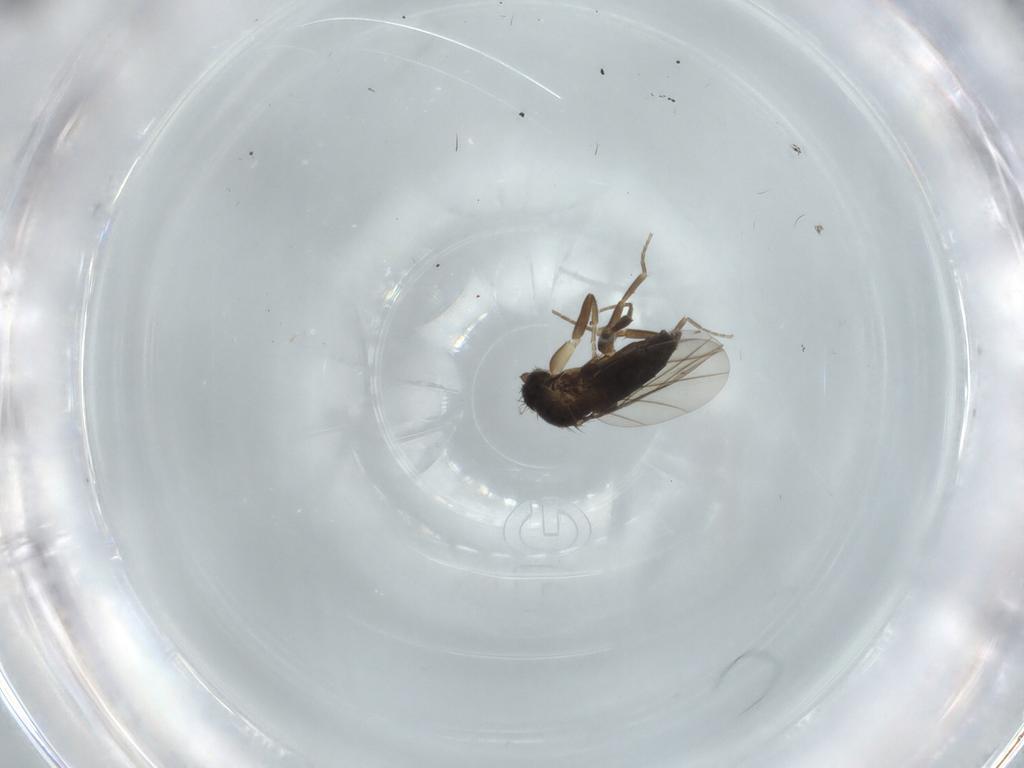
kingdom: Animalia
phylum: Arthropoda
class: Insecta
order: Diptera
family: Phoridae
